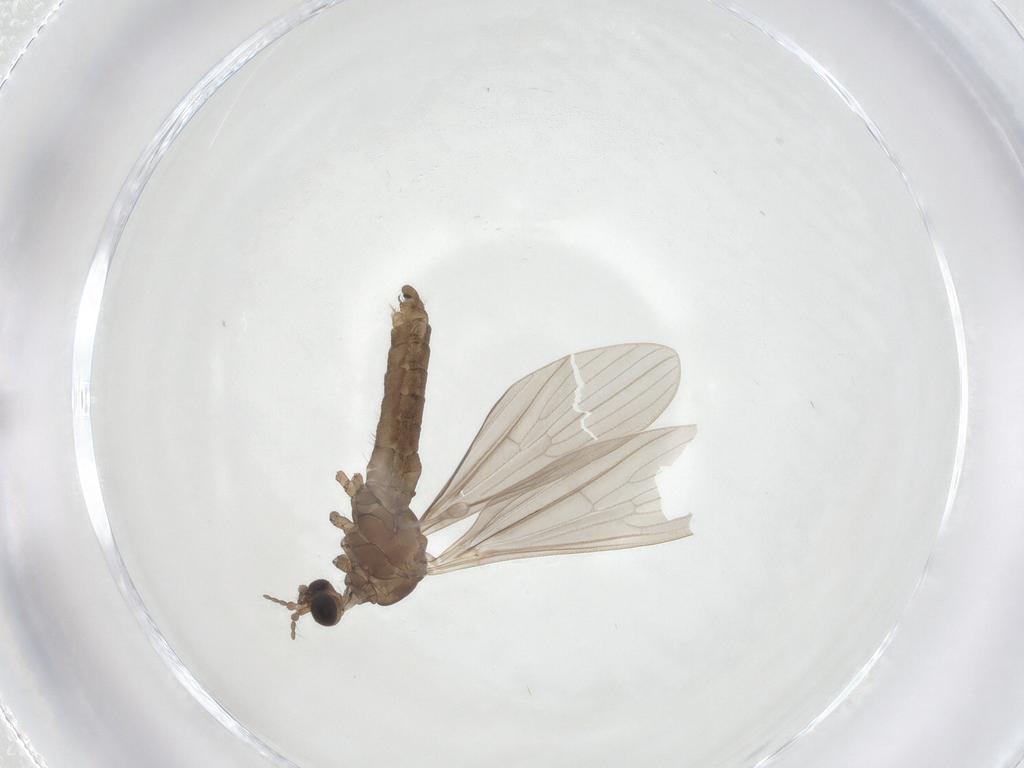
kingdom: Animalia
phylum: Arthropoda
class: Insecta
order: Diptera
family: Limoniidae
